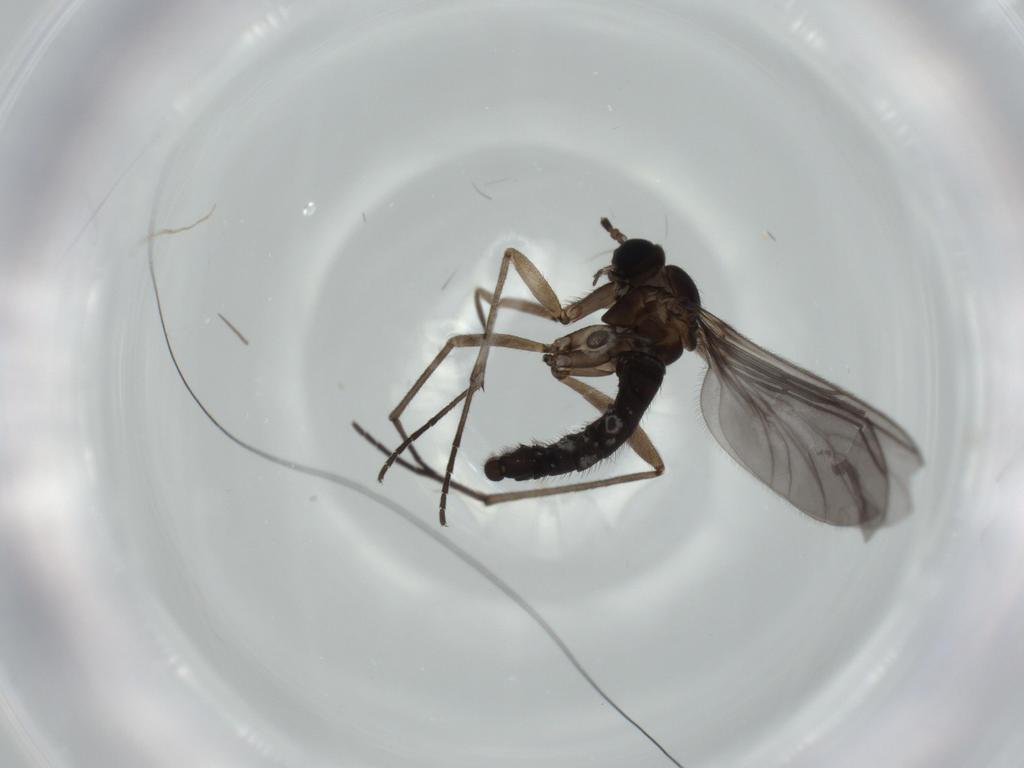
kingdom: Animalia
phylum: Arthropoda
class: Insecta
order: Diptera
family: Sciaridae
